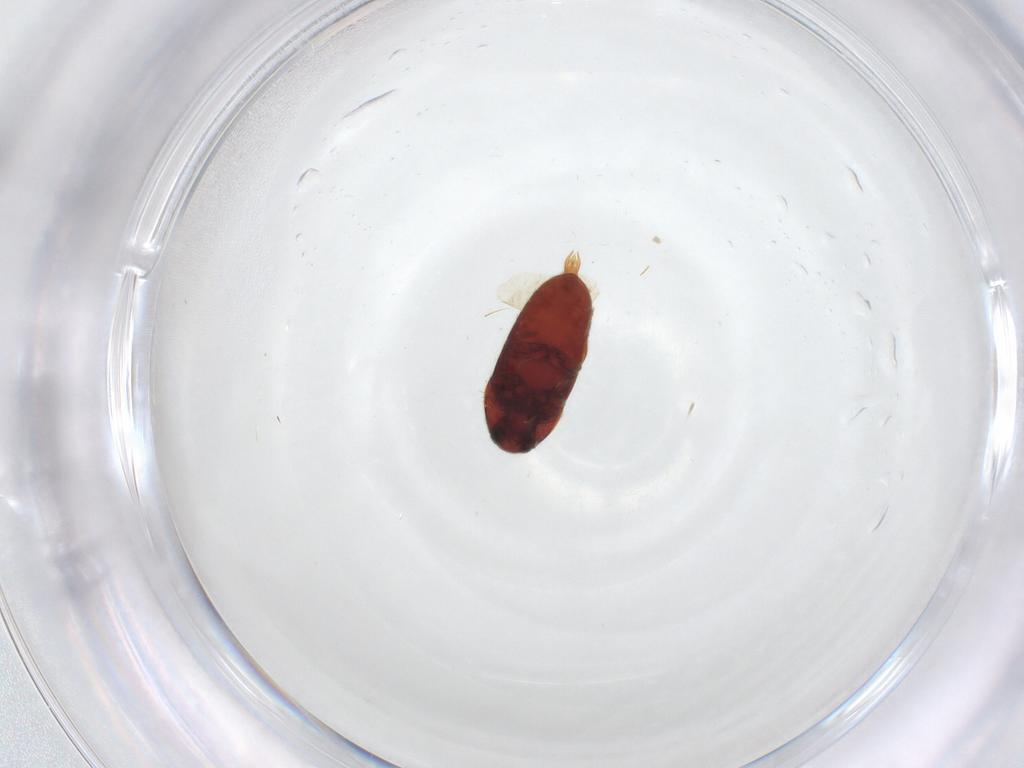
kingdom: Animalia
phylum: Arthropoda
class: Insecta
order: Coleoptera
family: Throscidae
